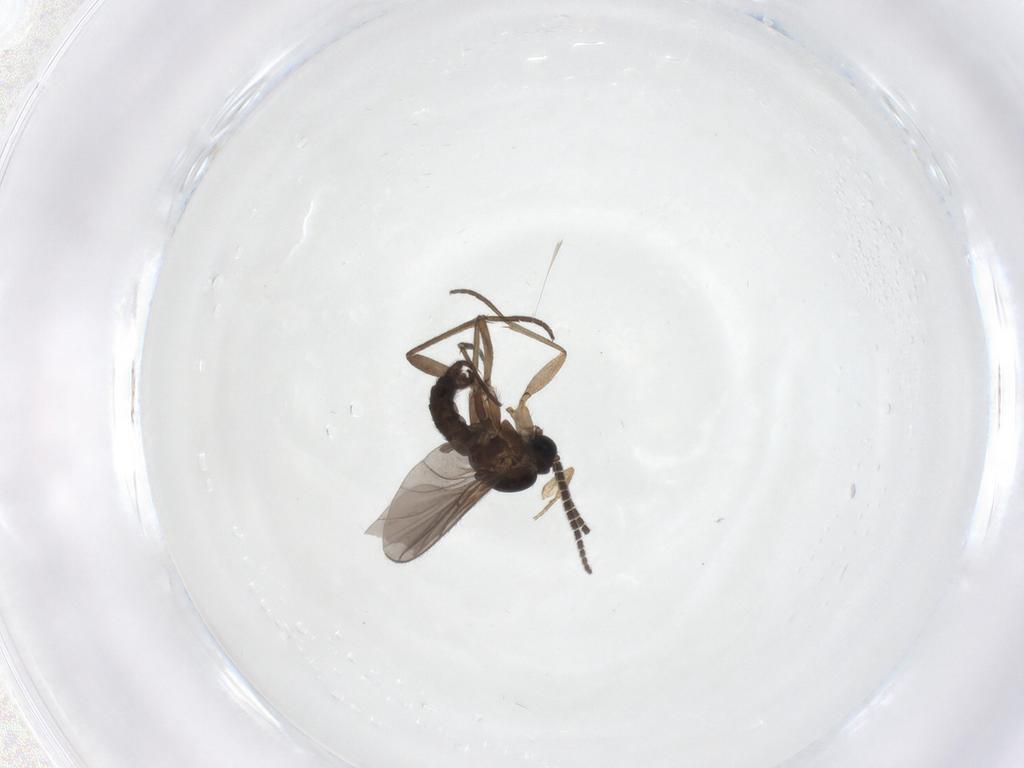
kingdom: Animalia
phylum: Arthropoda
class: Insecta
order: Diptera
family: Sciaridae
